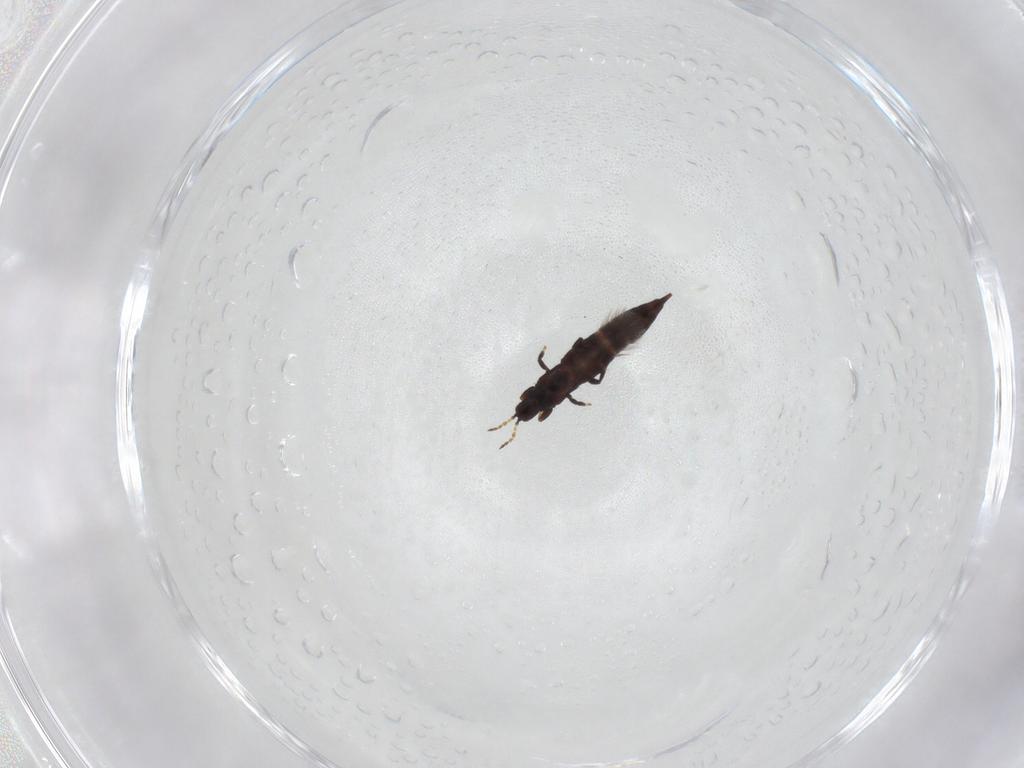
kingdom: Animalia
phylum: Arthropoda
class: Insecta
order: Thysanoptera
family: Phlaeothripidae
